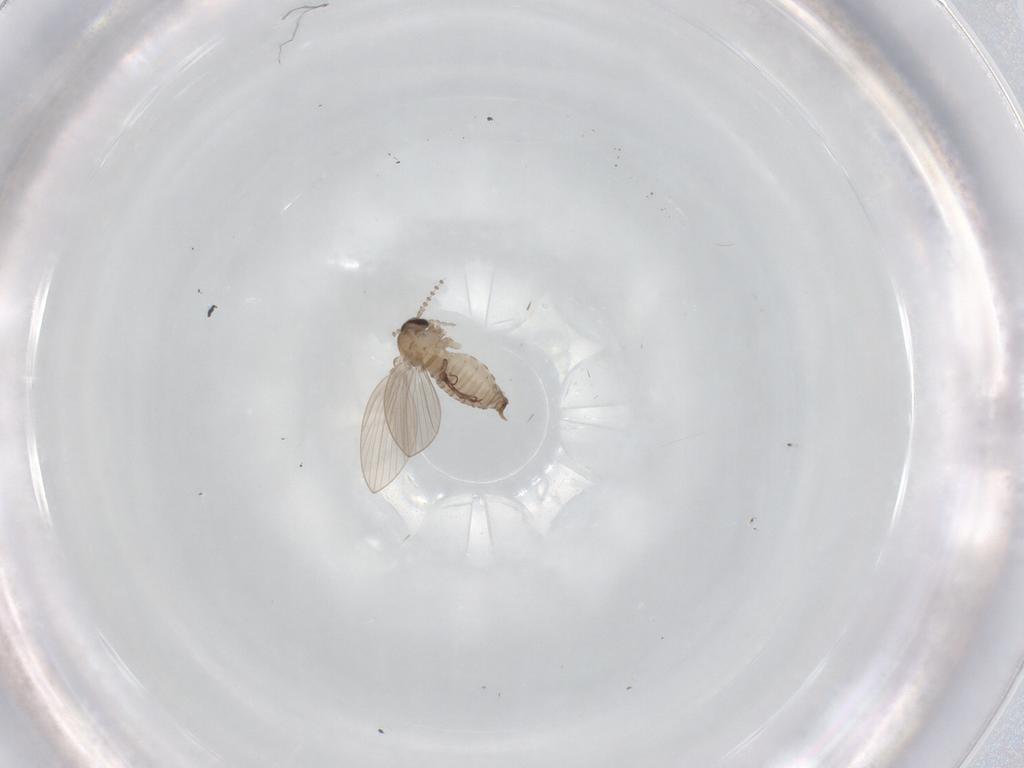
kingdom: Animalia
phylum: Arthropoda
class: Insecta
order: Diptera
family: Psychodidae
